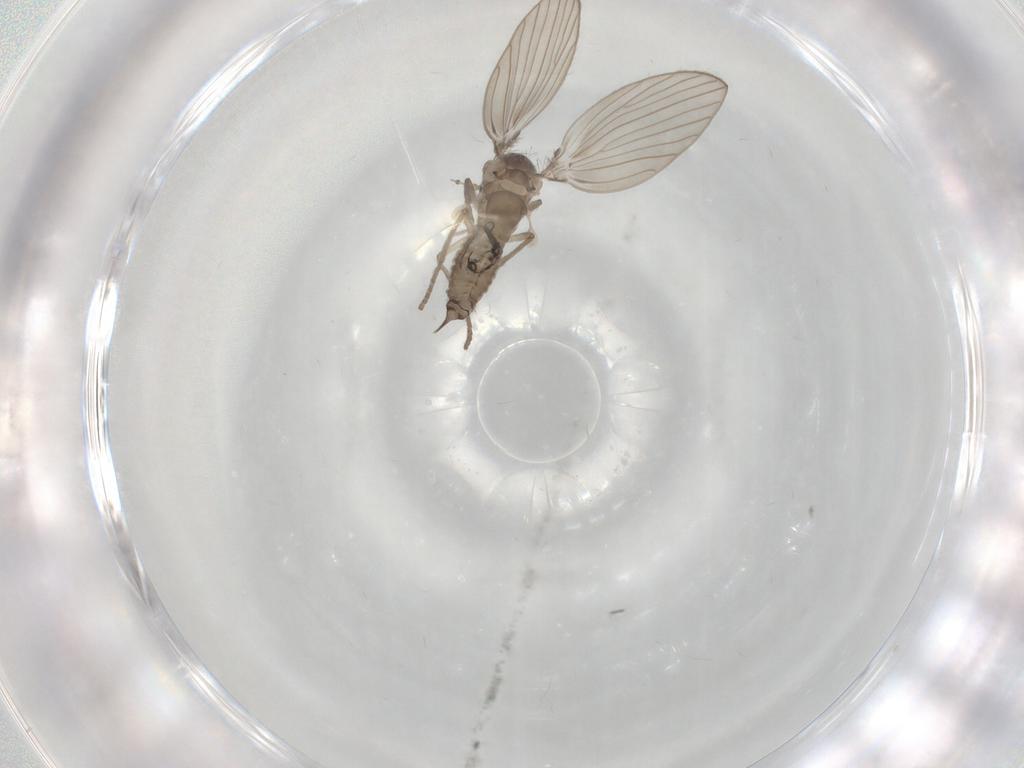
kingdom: Animalia
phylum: Arthropoda
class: Insecta
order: Diptera
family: Psychodidae
